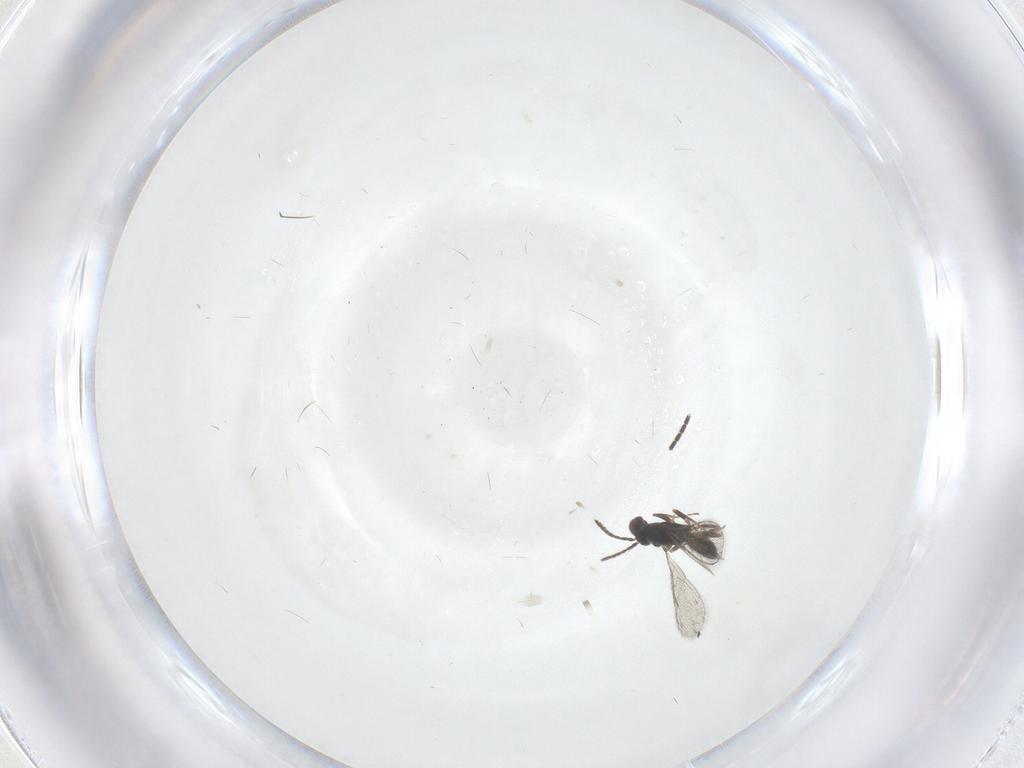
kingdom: Animalia
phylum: Arthropoda
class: Insecta
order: Hymenoptera
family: Eulophidae
